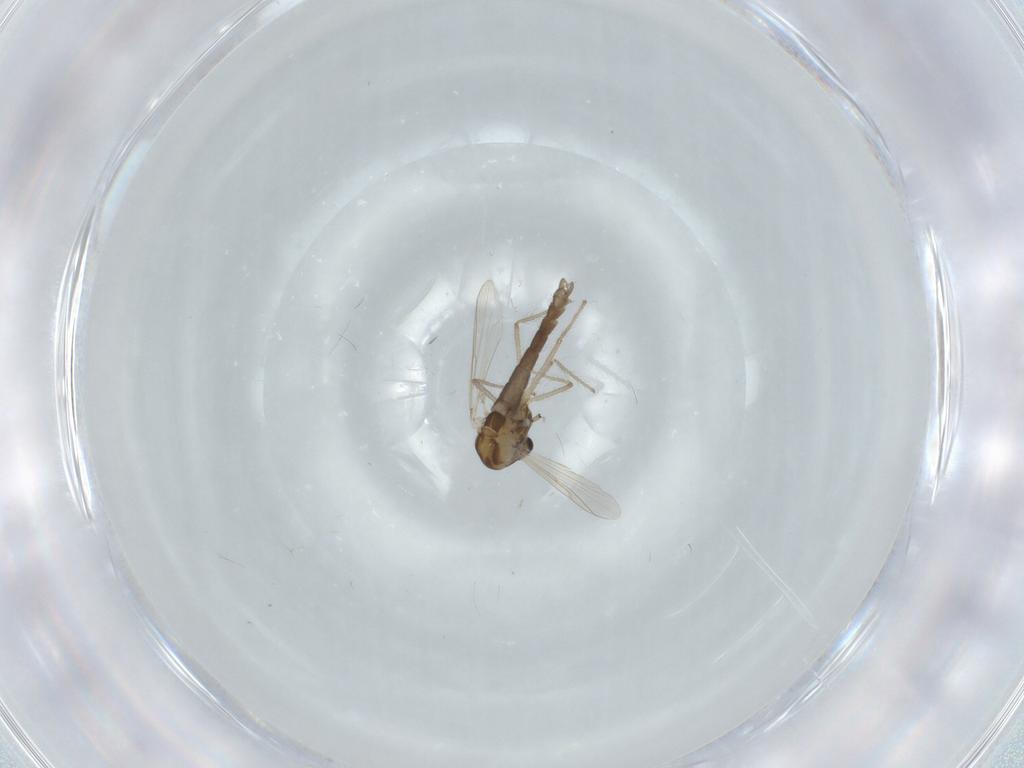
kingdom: Animalia
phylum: Arthropoda
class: Insecta
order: Diptera
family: Chironomidae
